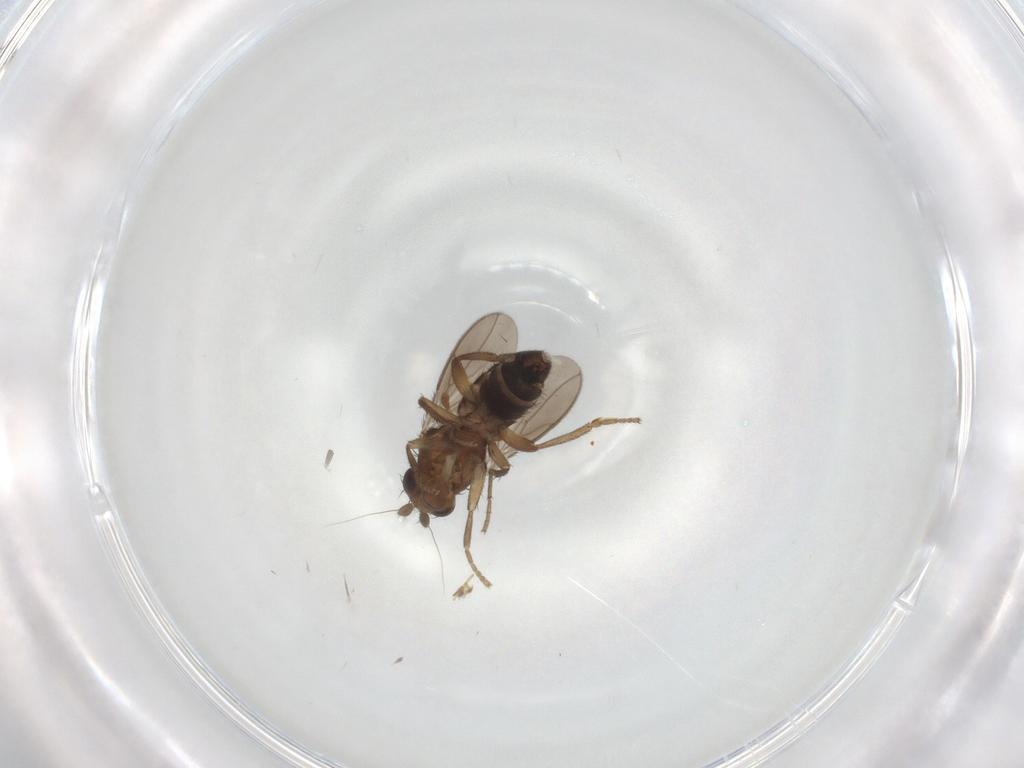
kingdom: Animalia
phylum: Arthropoda
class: Insecta
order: Diptera
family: Sphaeroceridae
